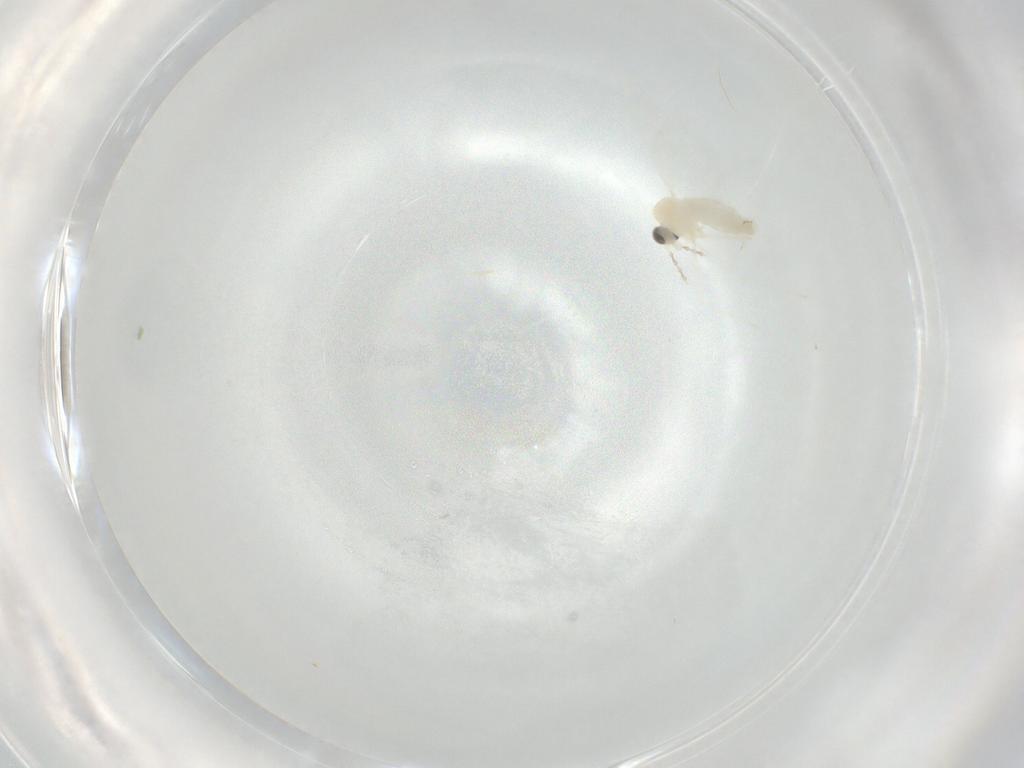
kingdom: Animalia
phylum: Arthropoda
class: Insecta
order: Diptera
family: Cecidomyiidae
